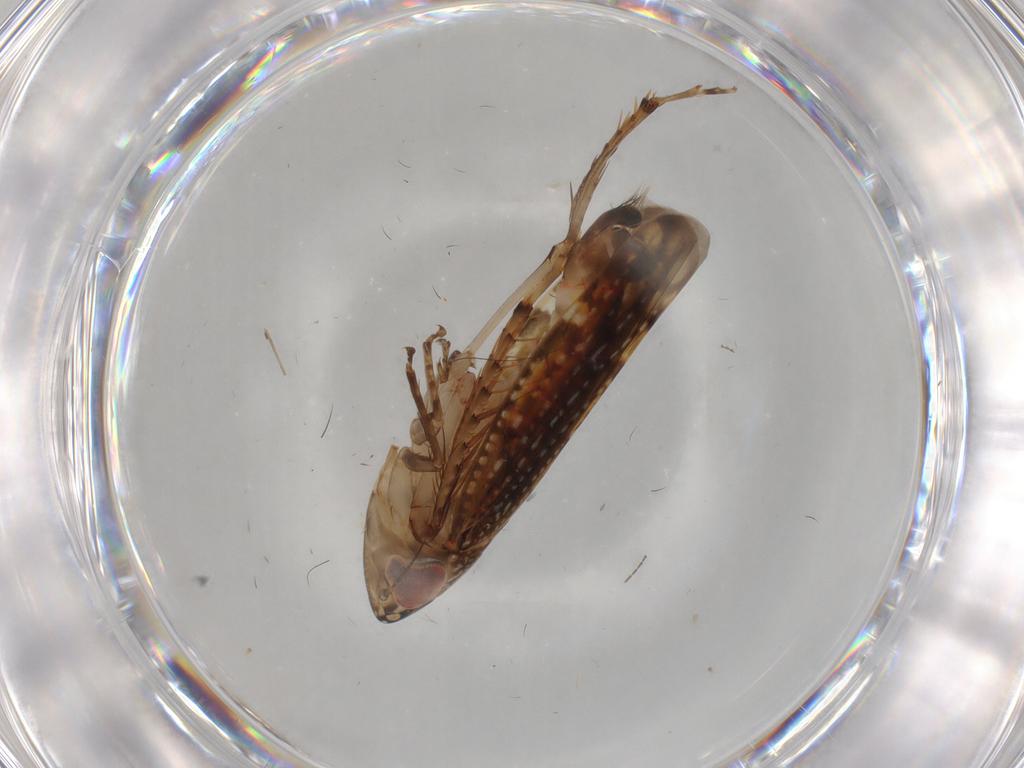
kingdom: Animalia
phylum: Arthropoda
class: Insecta
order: Hemiptera
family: Cicadellidae
